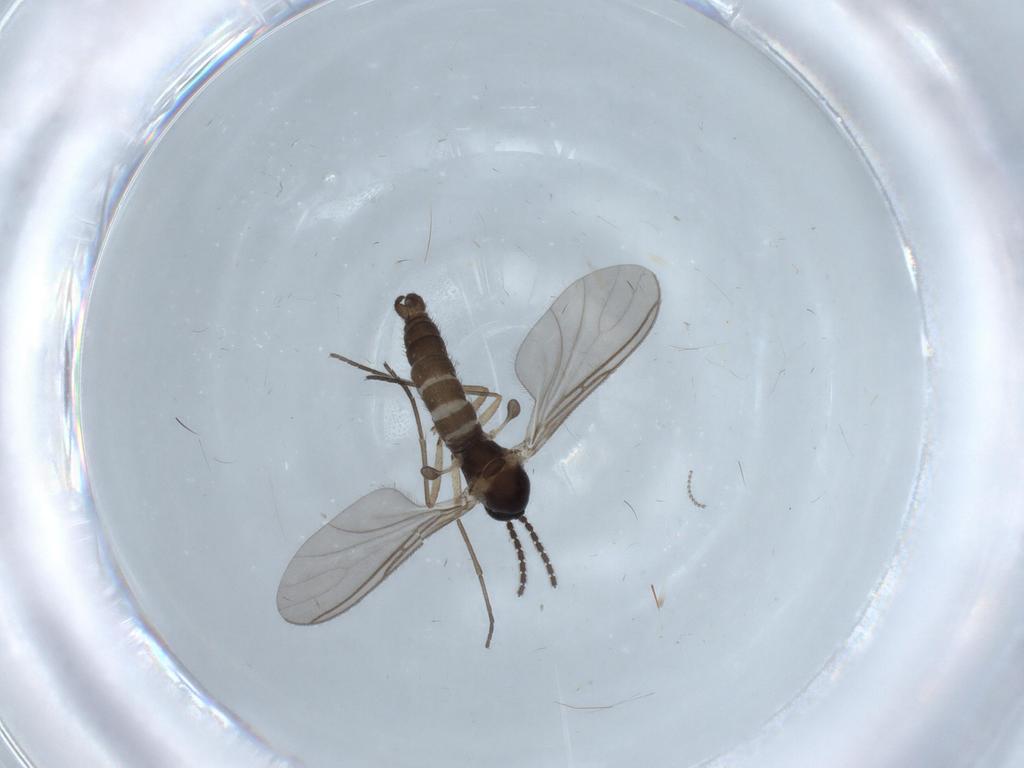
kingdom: Animalia
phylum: Arthropoda
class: Insecta
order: Diptera
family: Sciaridae
